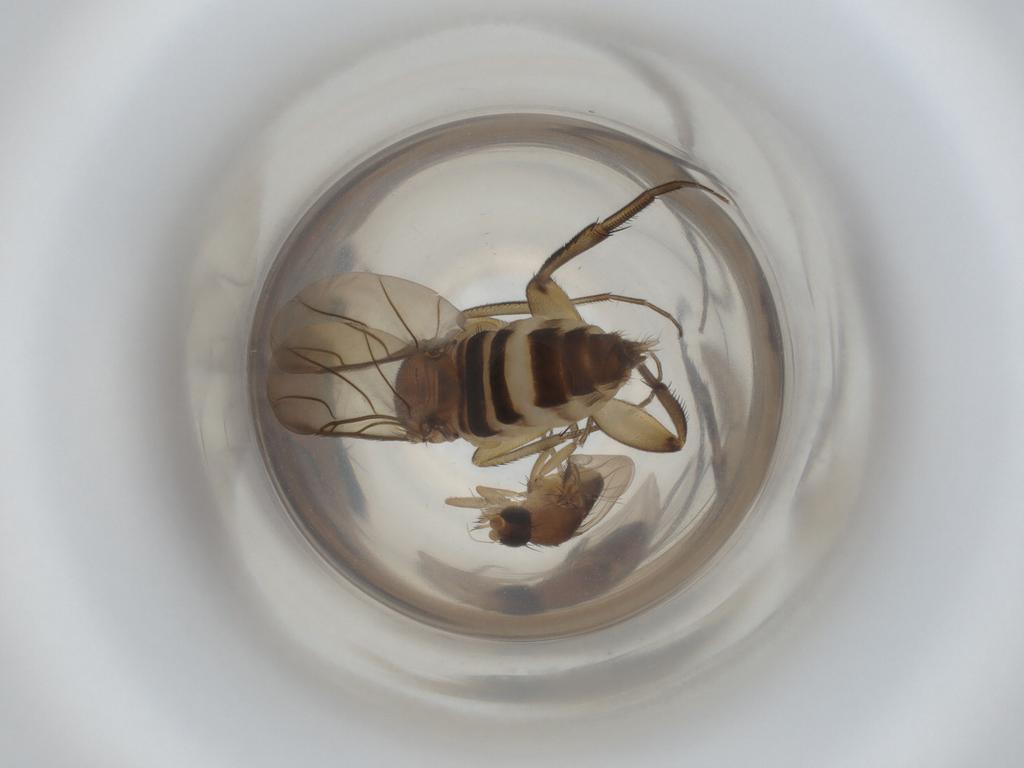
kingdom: Animalia
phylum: Arthropoda
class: Insecta
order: Diptera
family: Phoridae
